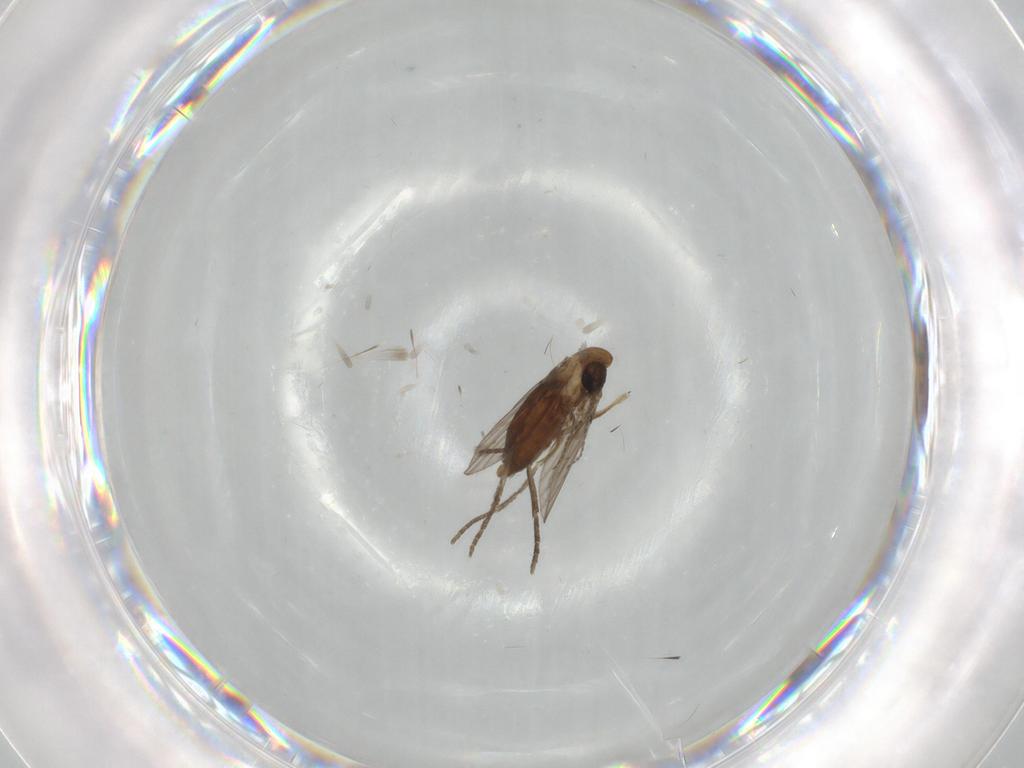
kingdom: Animalia
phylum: Arthropoda
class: Insecta
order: Diptera
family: Psychodidae
